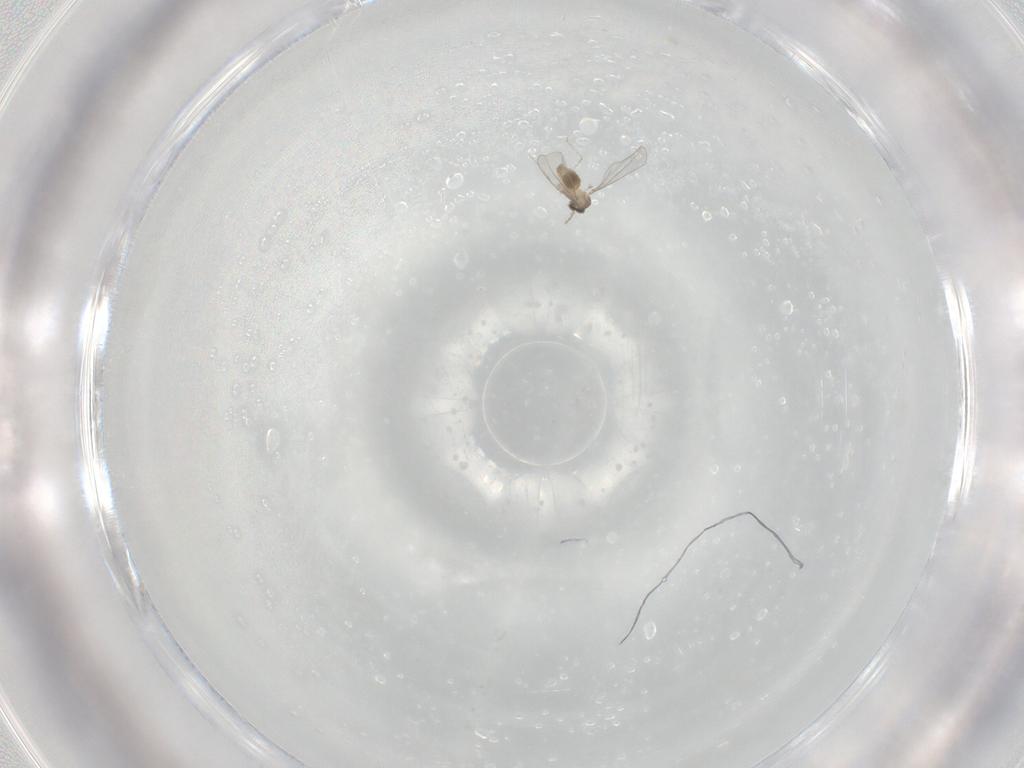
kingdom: Animalia
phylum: Arthropoda
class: Insecta
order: Diptera
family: Cecidomyiidae
